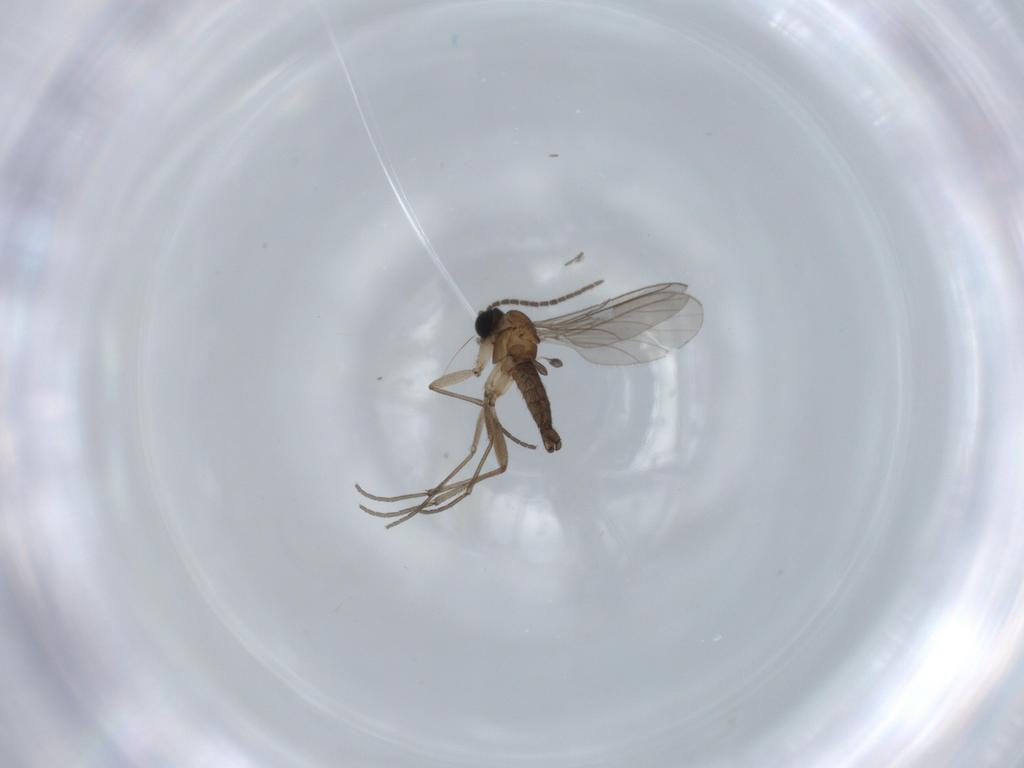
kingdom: Animalia
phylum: Arthropoda
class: Insecta
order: Diptera
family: Sciaridae
